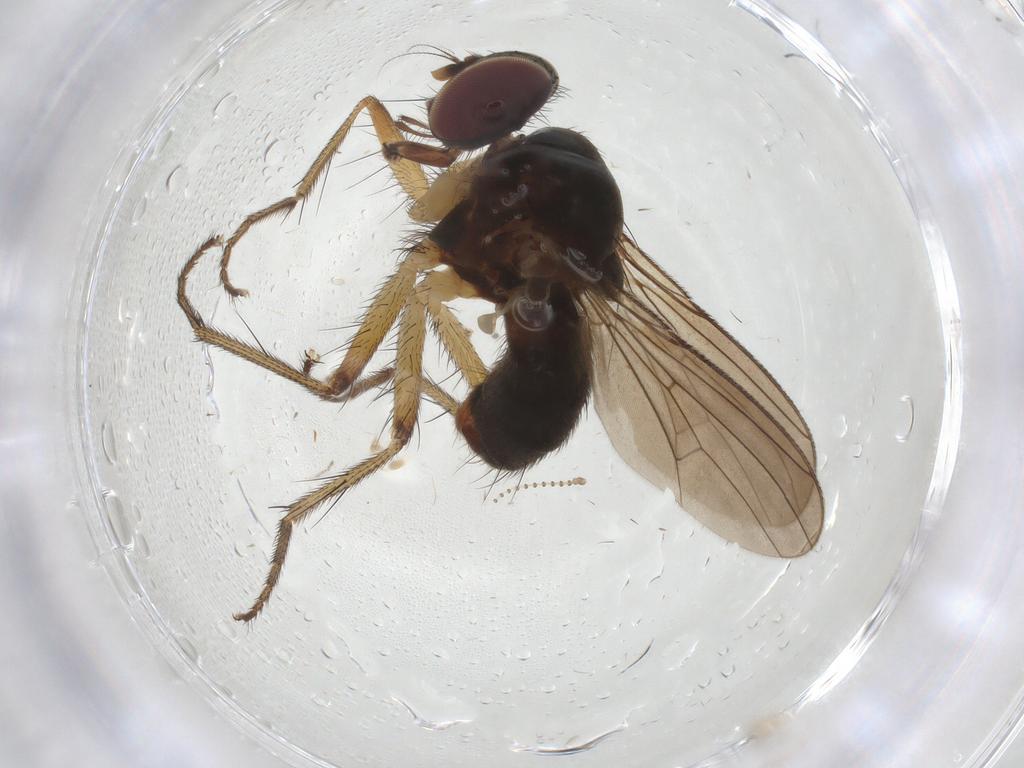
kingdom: Animalia
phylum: Arthropoda
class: Insecta
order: Diptera
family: Muscidae
